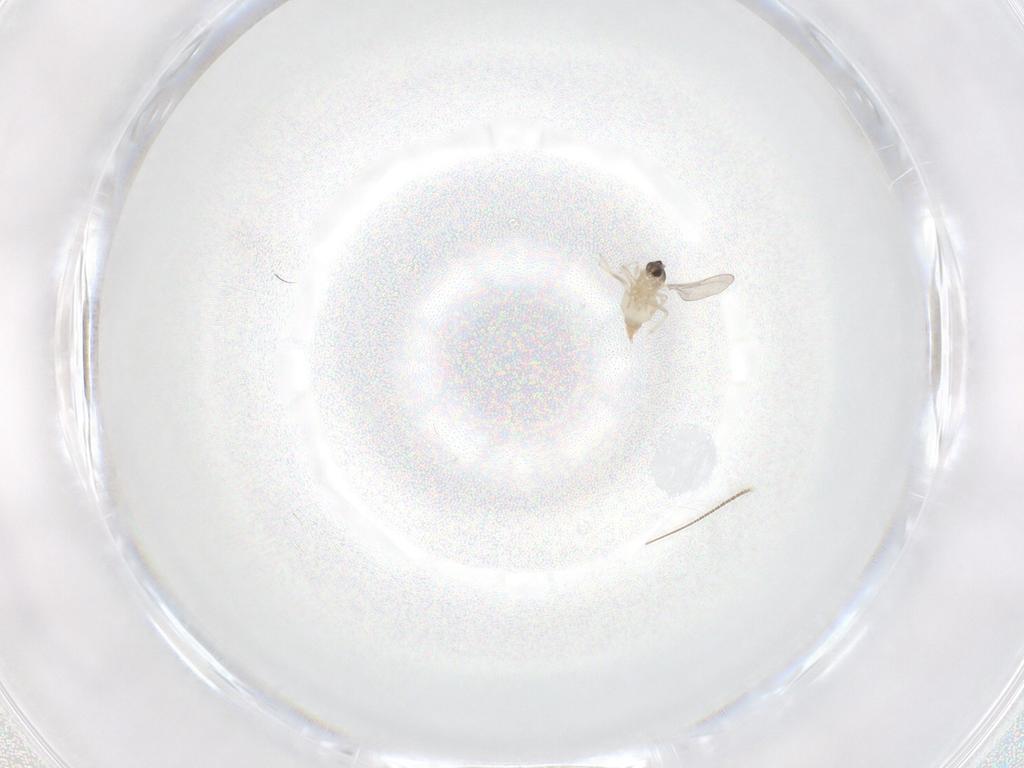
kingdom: Animalia
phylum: Arthropoda
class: Insecta
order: Diptera
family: Cecidomyiidae
